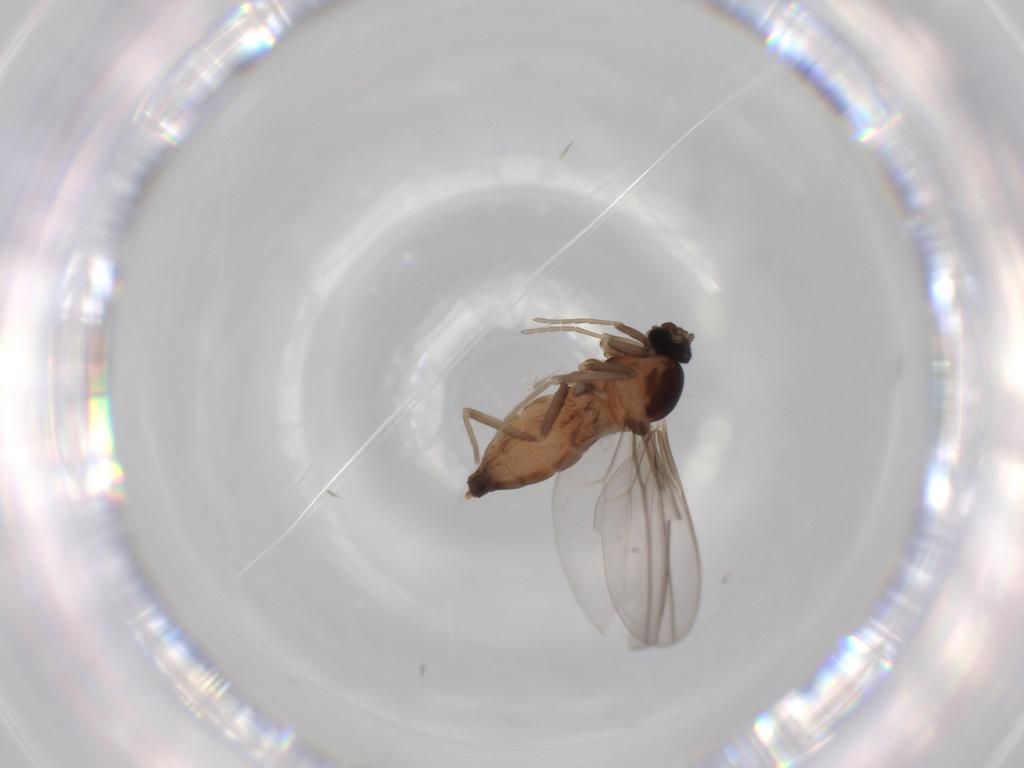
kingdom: Animalia
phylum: Arthropoda
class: Insecta
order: Diptera
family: Cecidomyiidae
